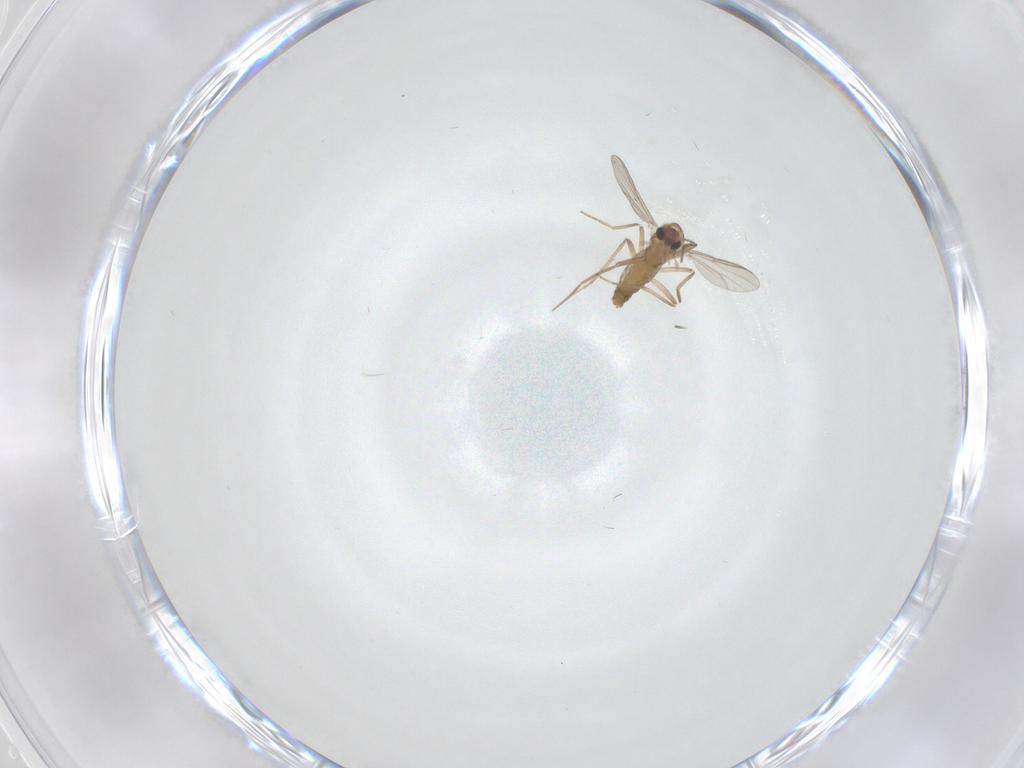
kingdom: Animalia
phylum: Arthropoda
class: Insecta
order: Diptera
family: Chironomidae
